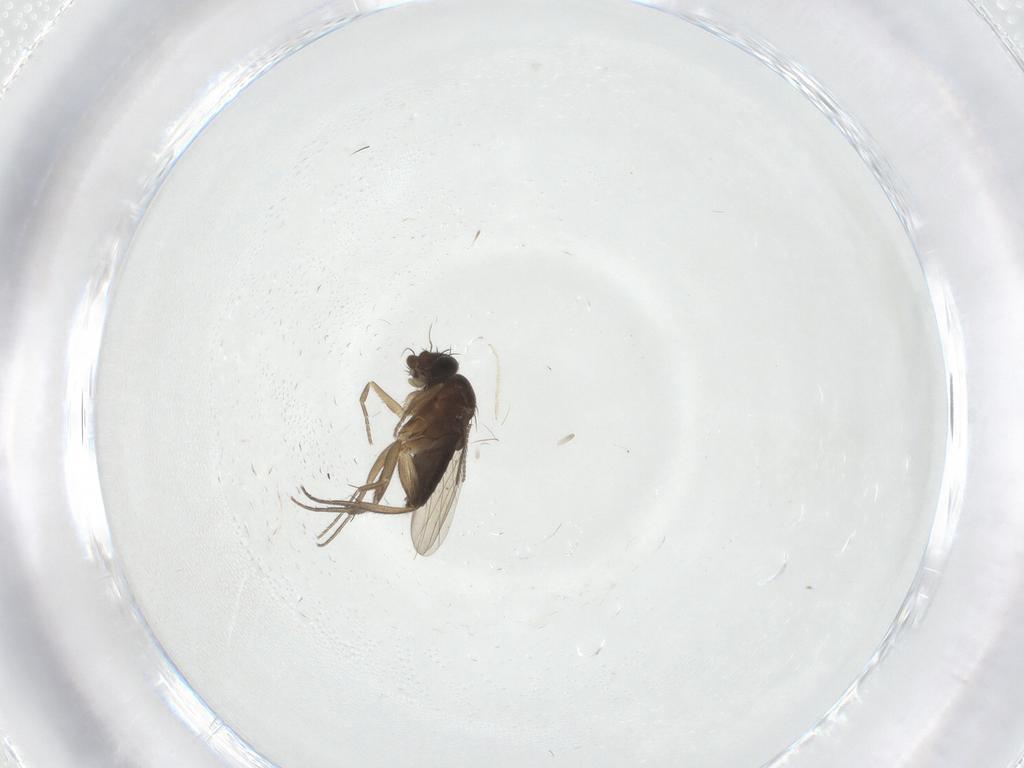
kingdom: Animalia
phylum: Arthropoda
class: Insecta
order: Diptera
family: Phoridae
